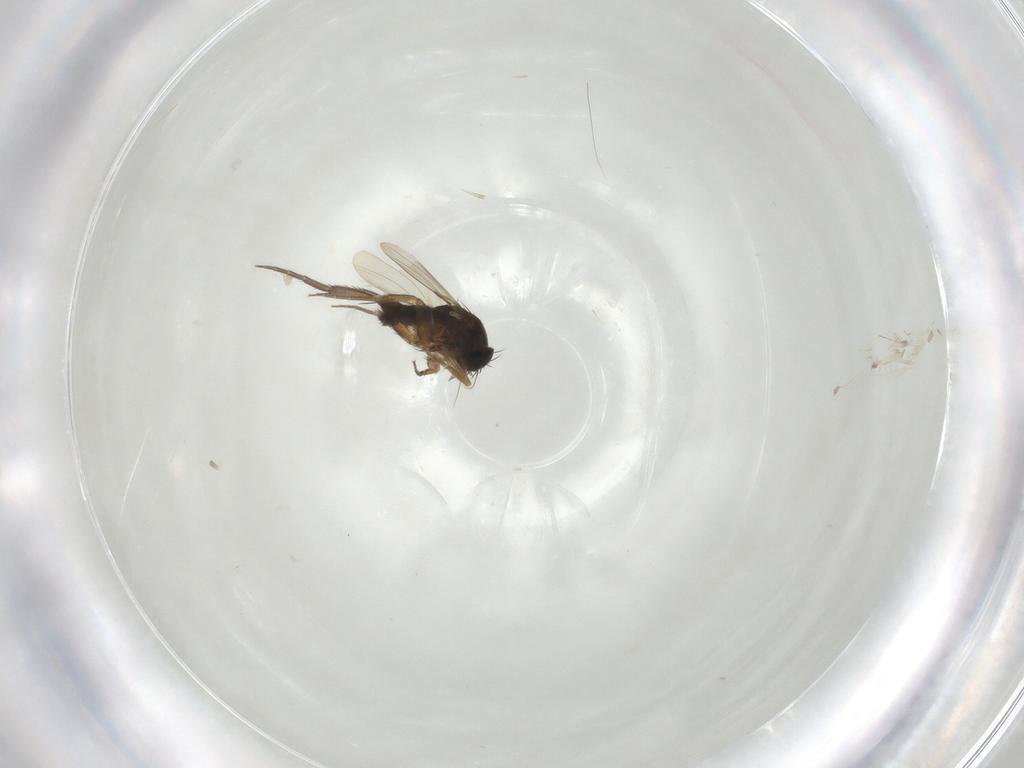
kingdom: Animalia
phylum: Arthropoda
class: Insecta
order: Diptera
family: Phoridae
